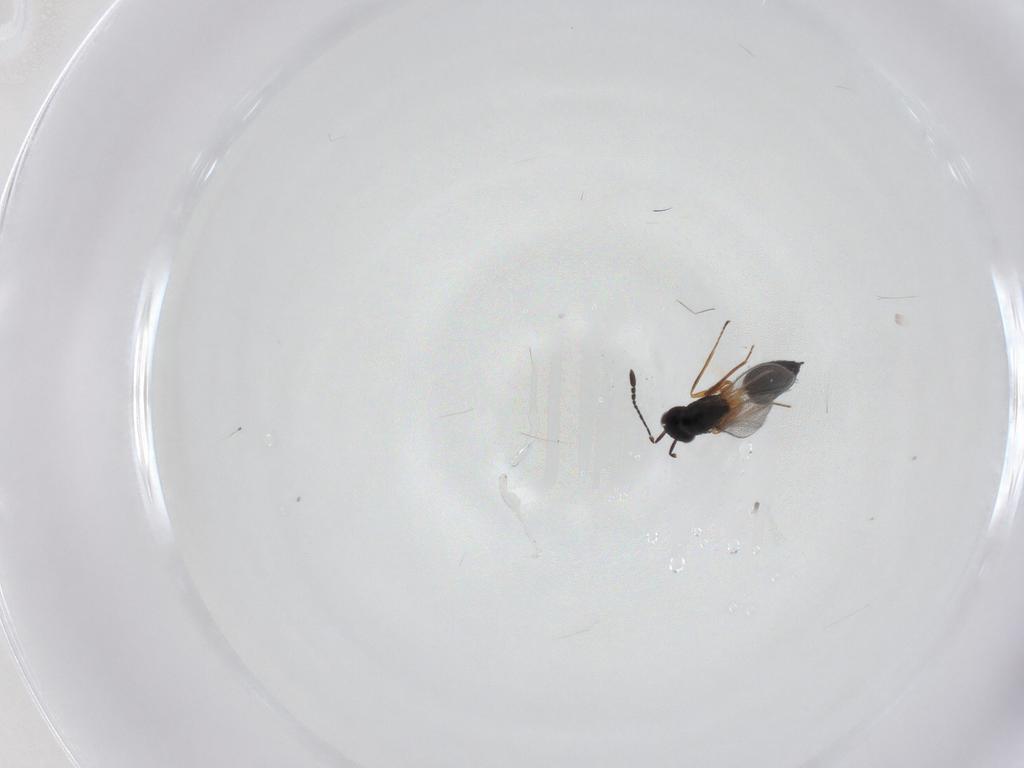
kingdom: Animalia
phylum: Arthropoda
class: Insecta
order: Hymenoptera
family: Mymaridae
